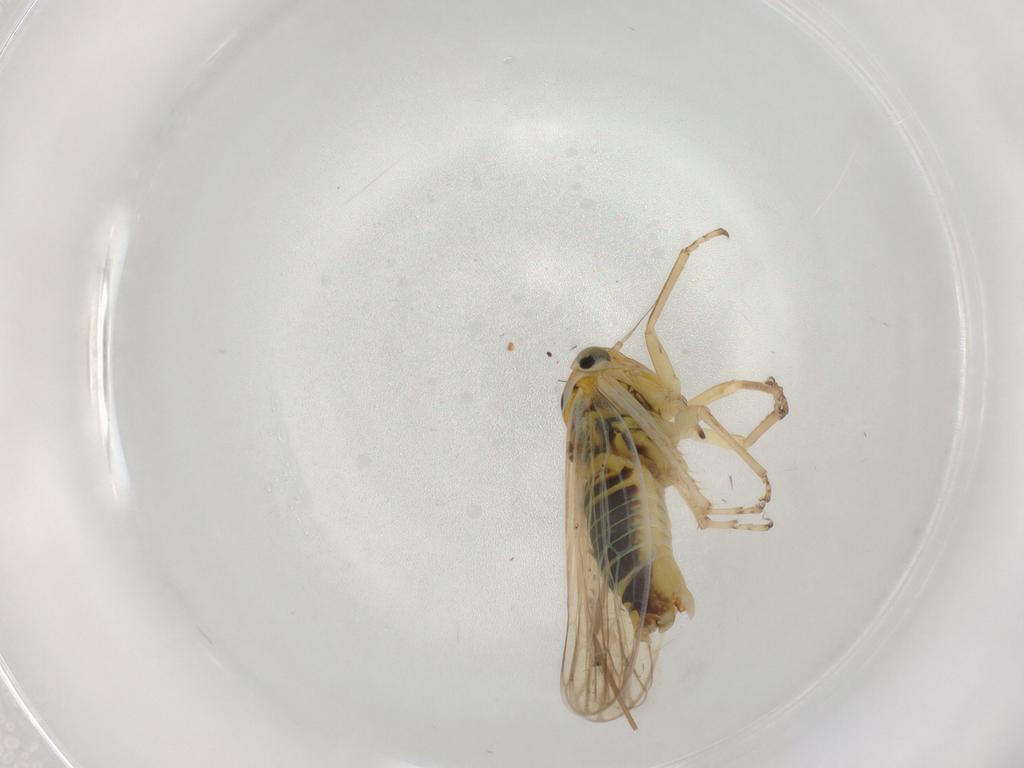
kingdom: Animalia
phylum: Arthropoda
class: Insecta
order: Hemiptera
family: Cicadellidae
